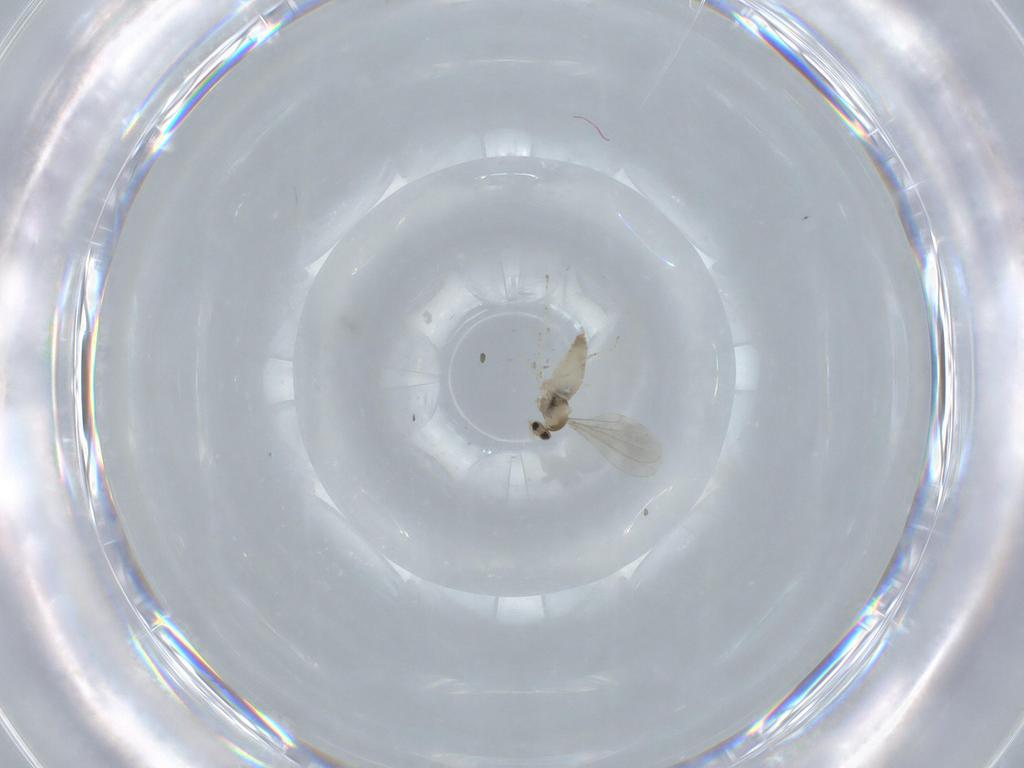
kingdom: Animalia
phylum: Arthropoda
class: Insecta
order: Diptera
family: Cecidomyiidae
